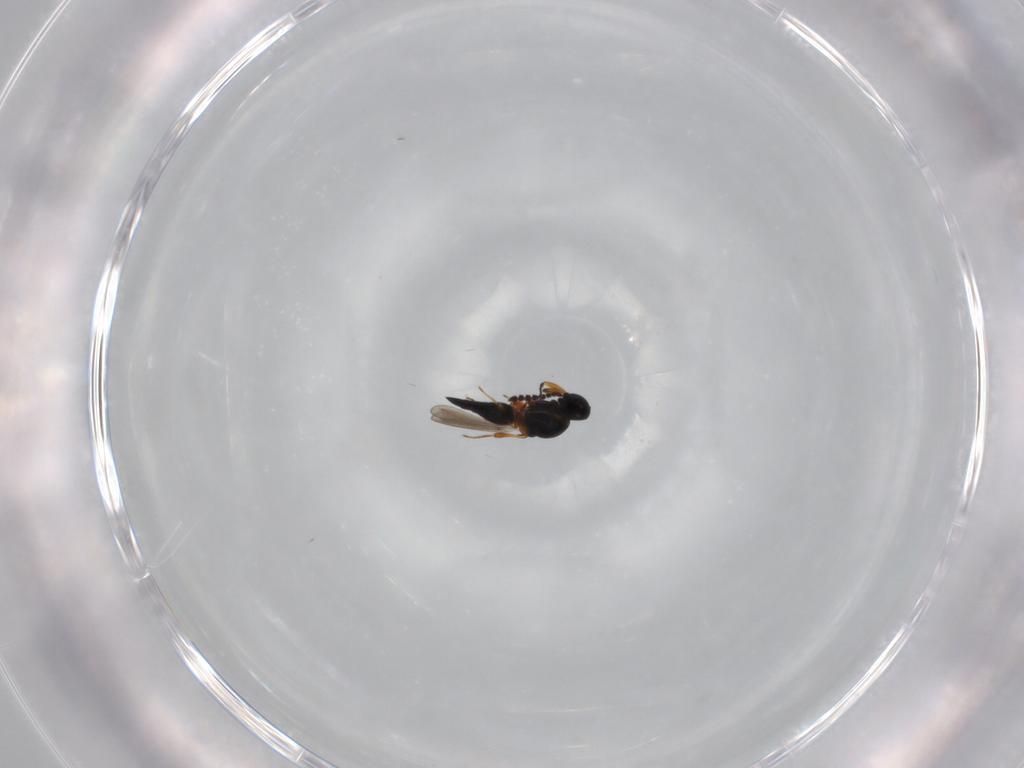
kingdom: Animalia
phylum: Arthropoda
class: Insecta
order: Hymenoptera
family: Platygastridae
